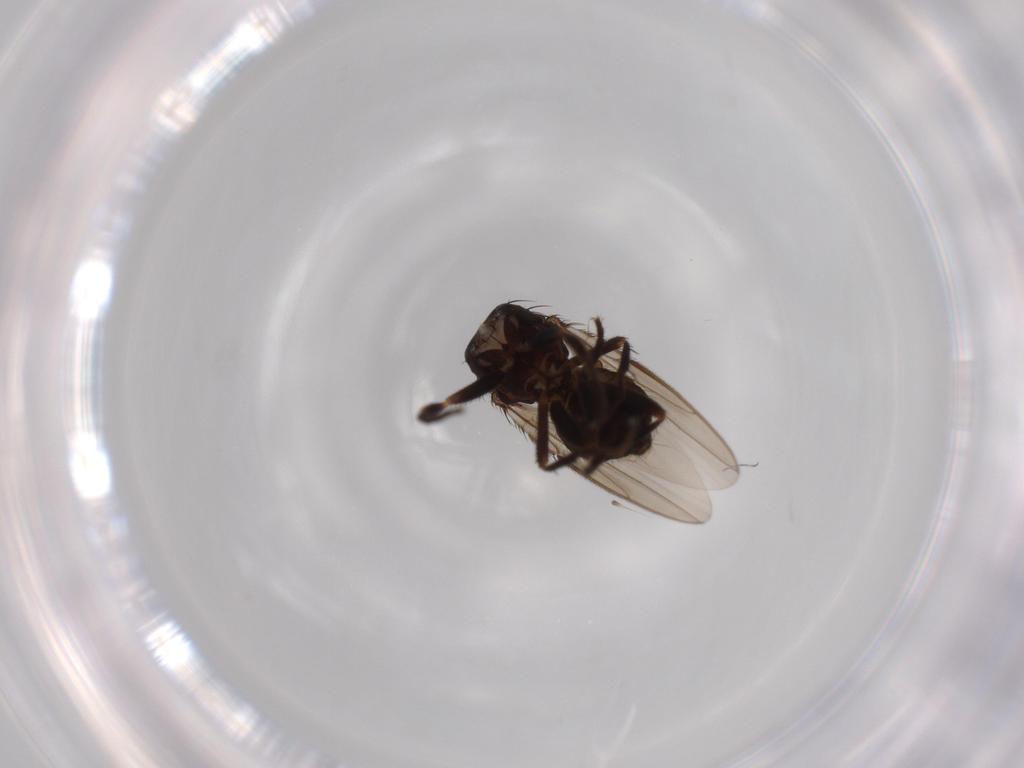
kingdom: Animalia
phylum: Arthropoda
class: Insecta
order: Diptera
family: Sphaeroceridae
